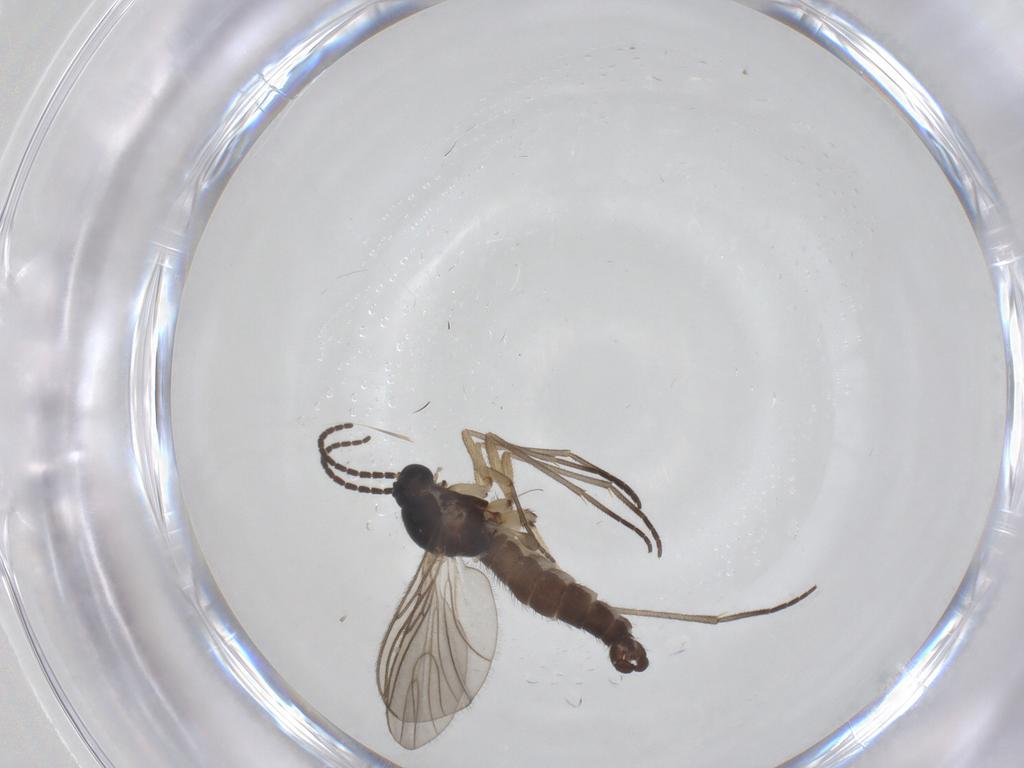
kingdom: Animalia
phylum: Arthropoda
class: Insecta
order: Diptera
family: Sciaridae
